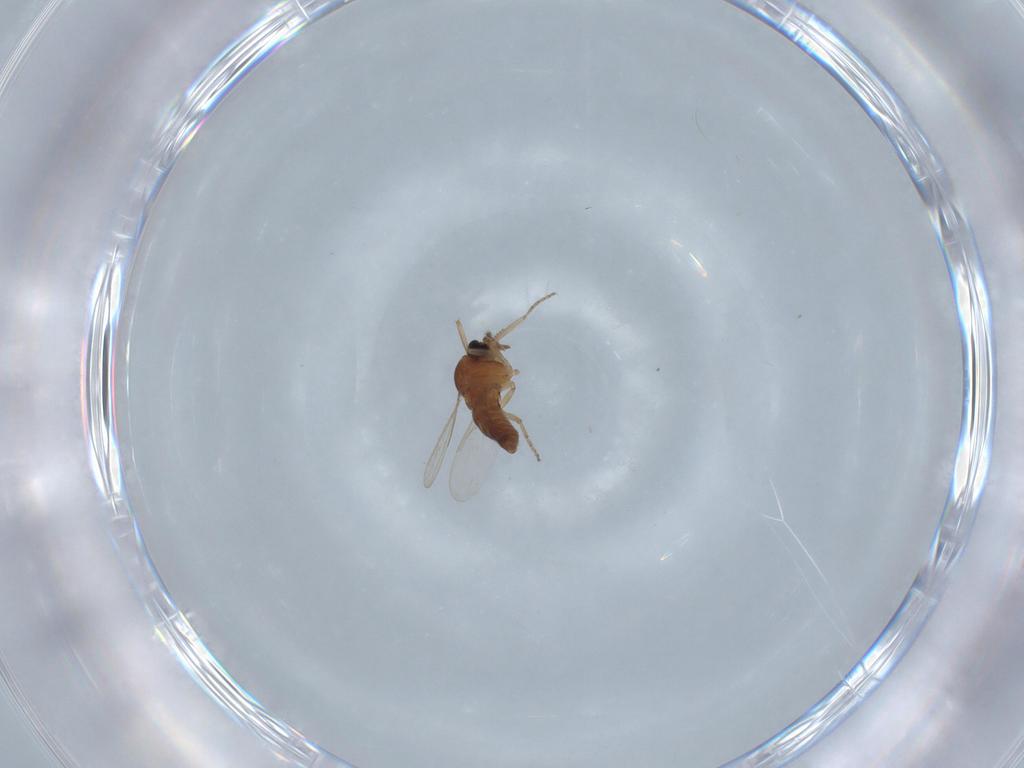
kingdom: Animalia
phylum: Arthropoda
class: Insecta
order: Diptera
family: Ceratopogonidae
